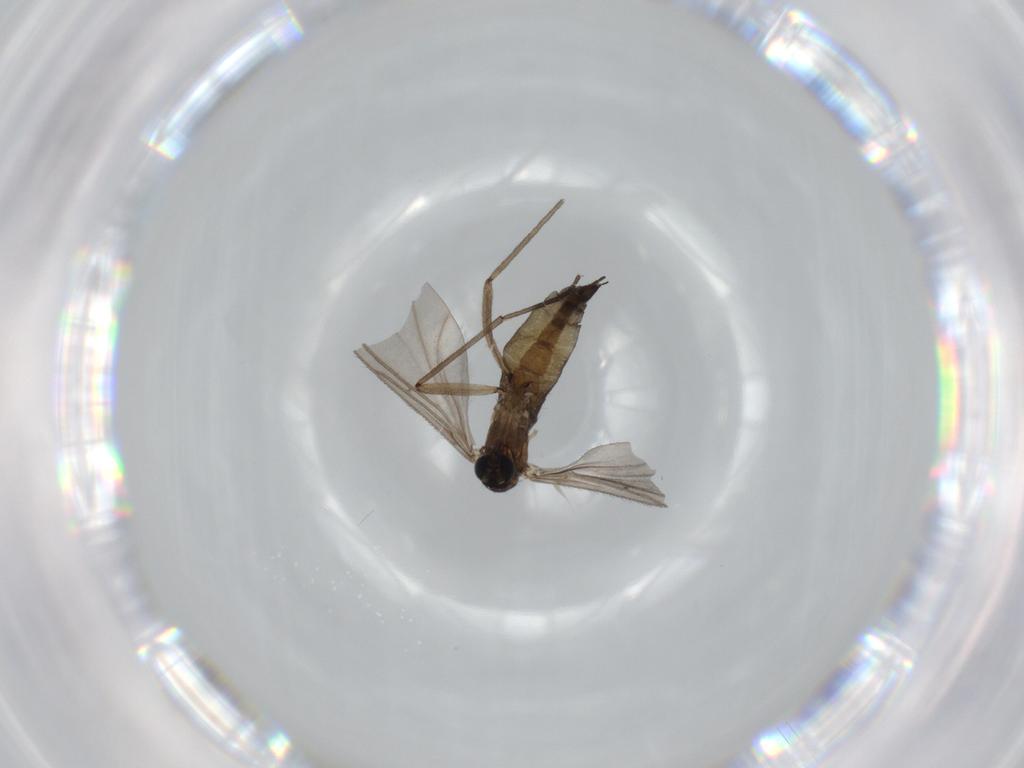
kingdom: Animalia
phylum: Arthropoda
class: Insecta
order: Diptera
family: Sciaridae
